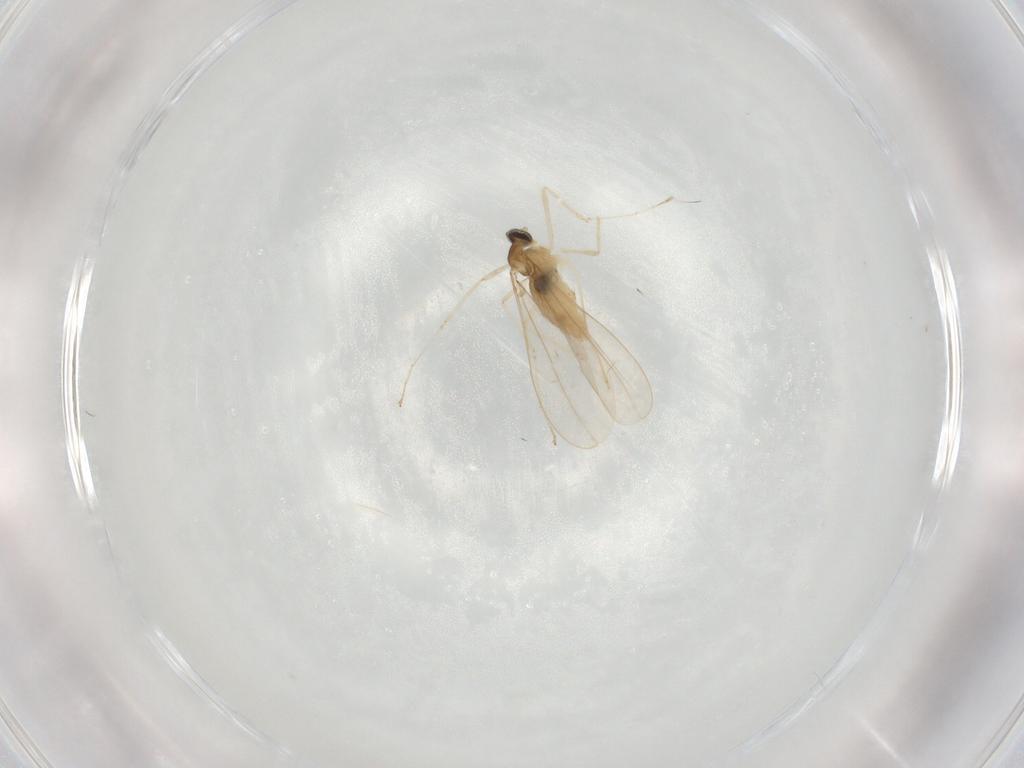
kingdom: Animalia
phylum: Arthropoda
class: Insecta
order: Diptera
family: Cecidomyiidae
